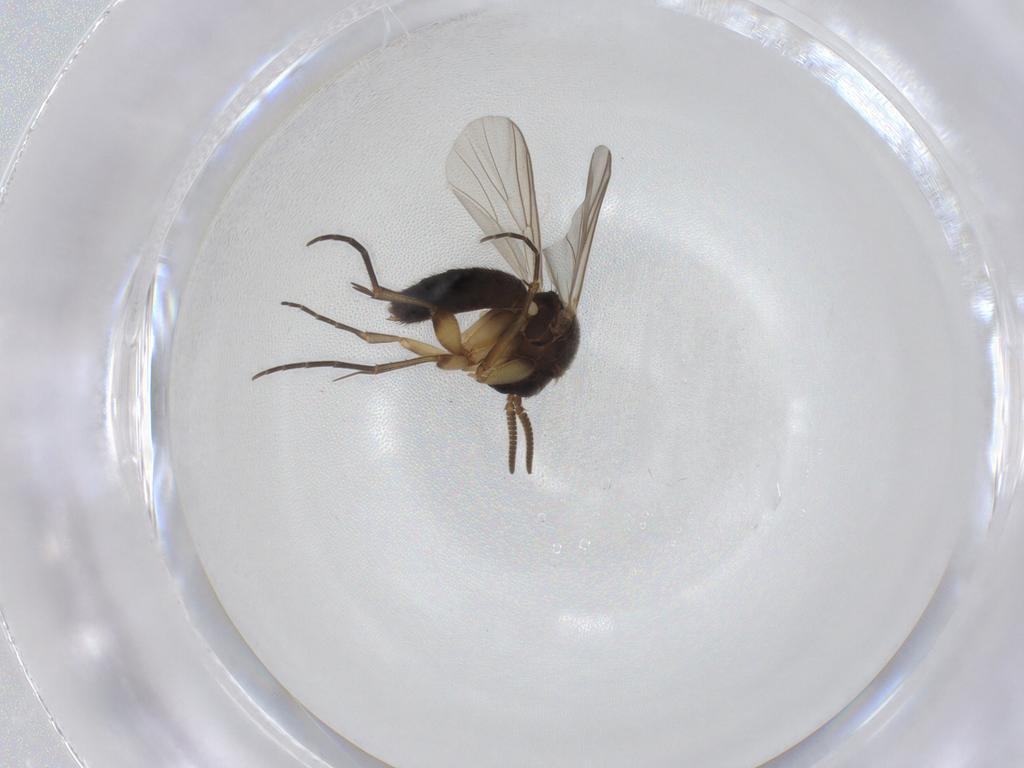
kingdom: Animalia
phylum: Arthropoda
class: Insecta
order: Diptera
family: Mycetophilidae
